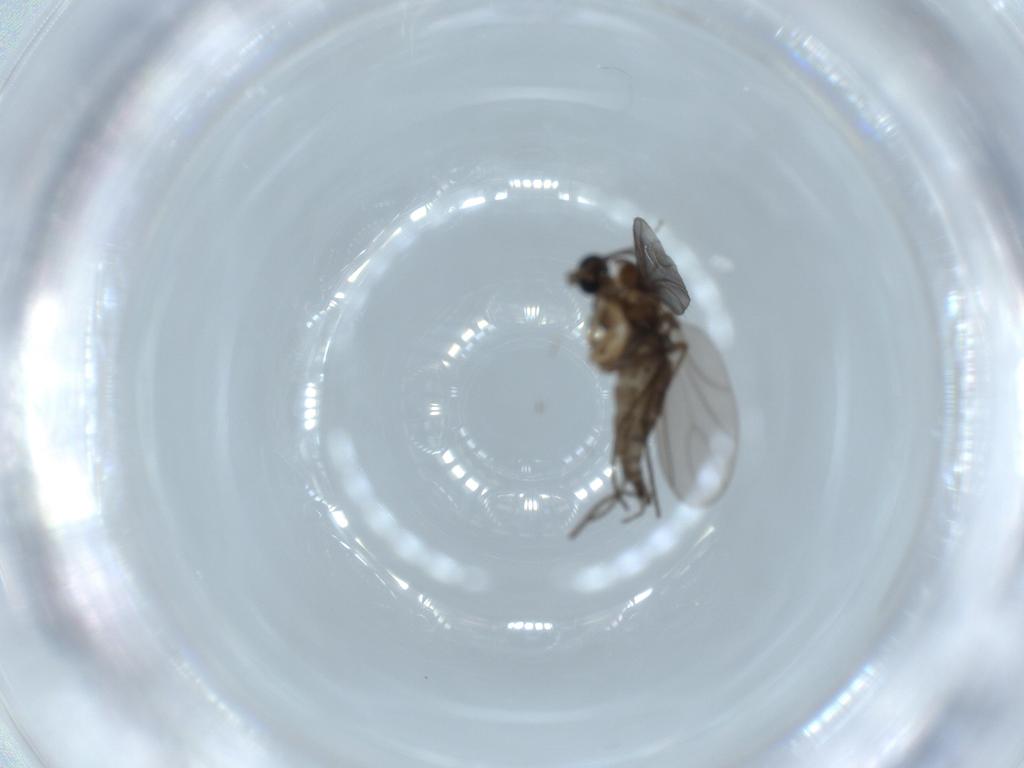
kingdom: Animalia
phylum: Arthropoda
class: Insecta
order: Diptera
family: Sciaridae
